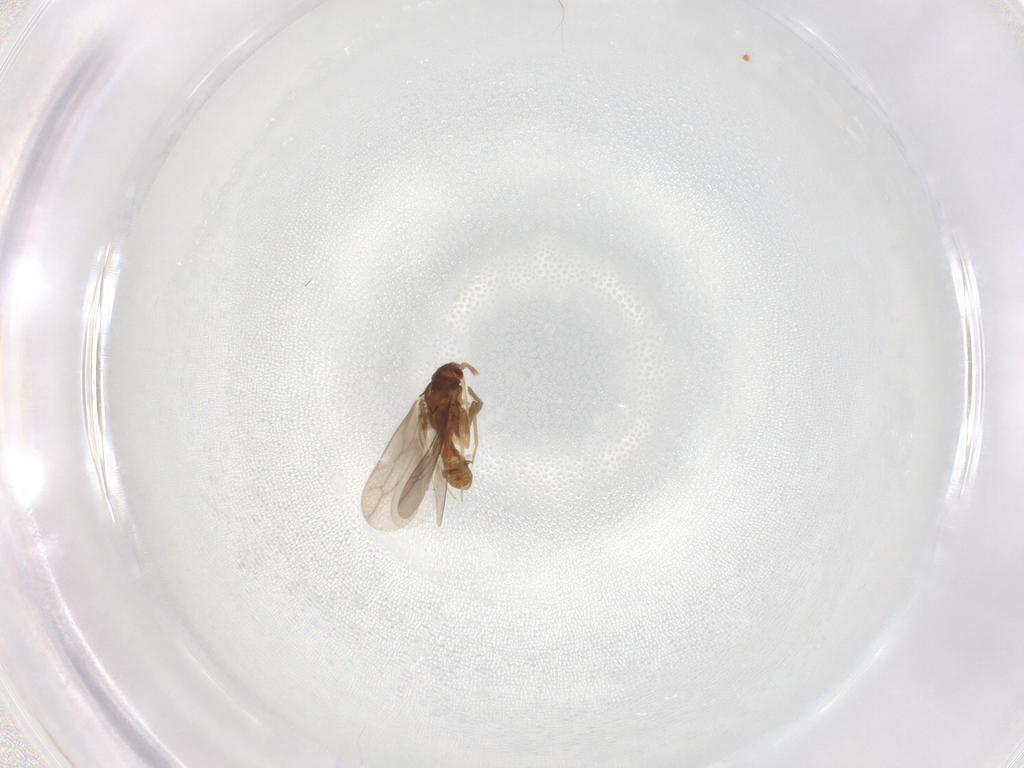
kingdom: Animalia
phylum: Arthropoda
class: Insecta
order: Hemiptera
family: Ceratocombidae
